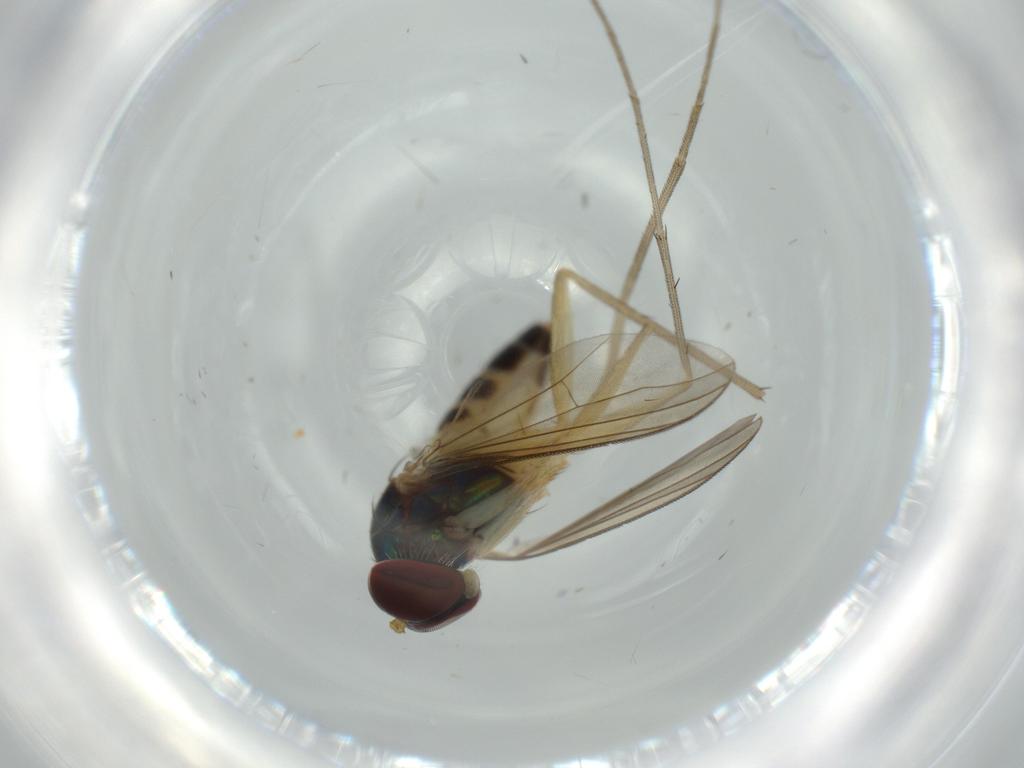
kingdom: Animalia
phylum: Arthropoda
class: Insecta
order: Diptera
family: Dolichopodidae
